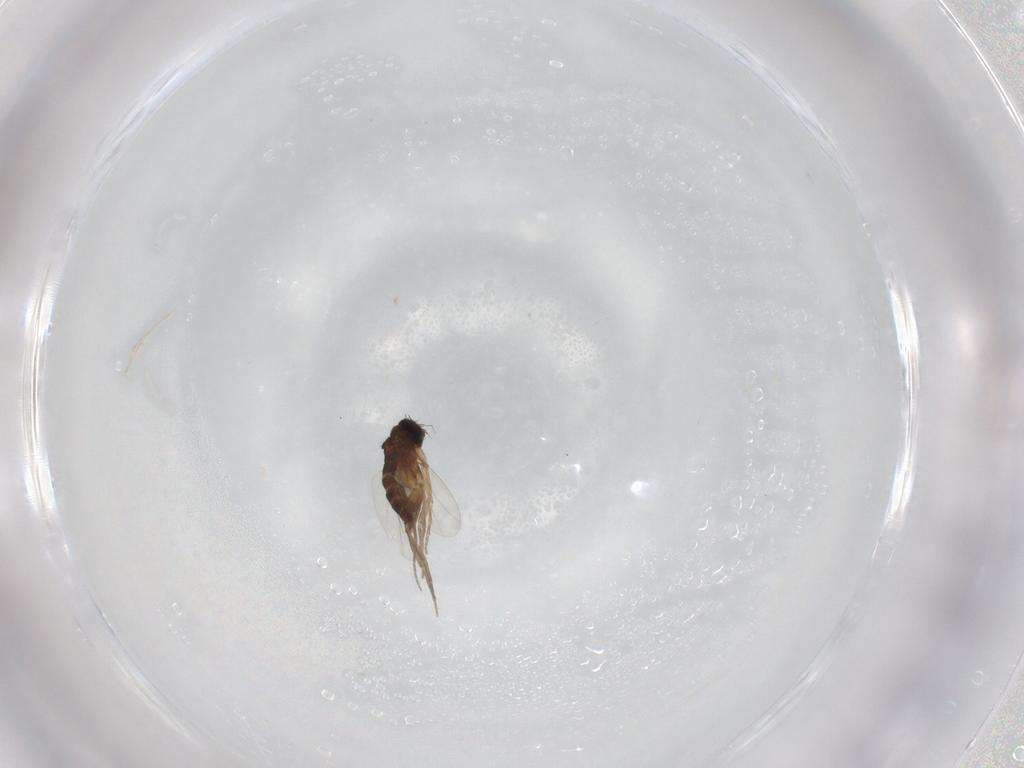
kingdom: Animalia
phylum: Arthropoda
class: Insecta
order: Diptera
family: Phoridae
